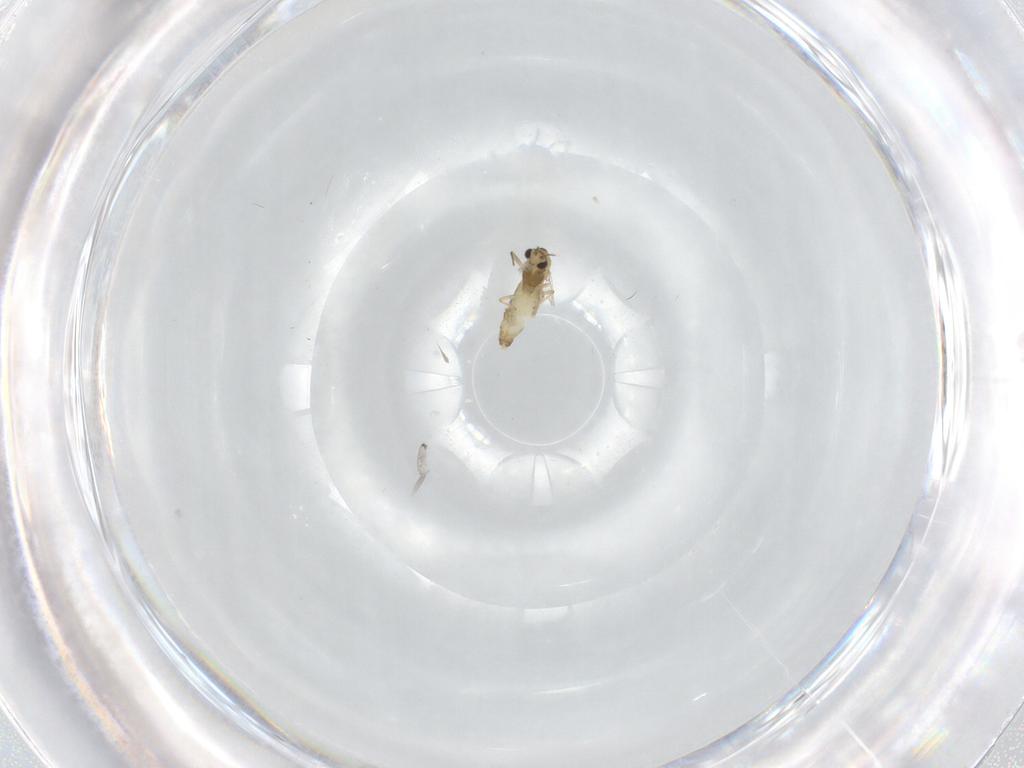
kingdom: Animalia
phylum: Arthropoda
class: Insecta
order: Diptera
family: Chironomidae
